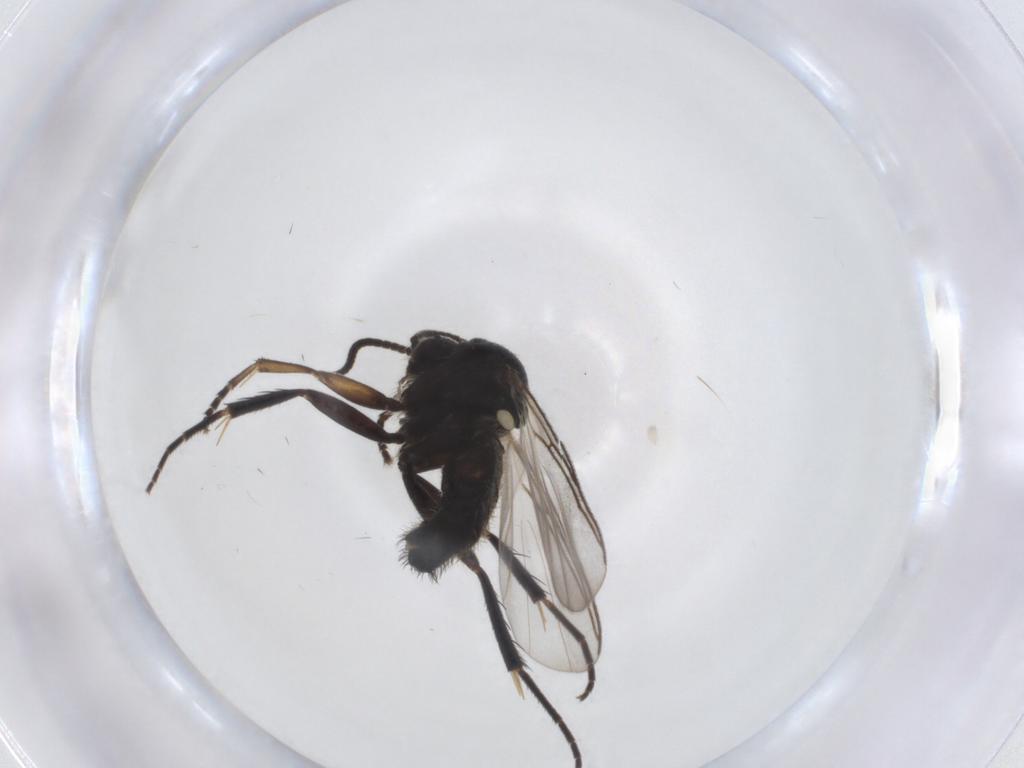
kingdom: Animalia
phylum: Arthropoda
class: Insecta
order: Diptera
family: Mycetophilidae
